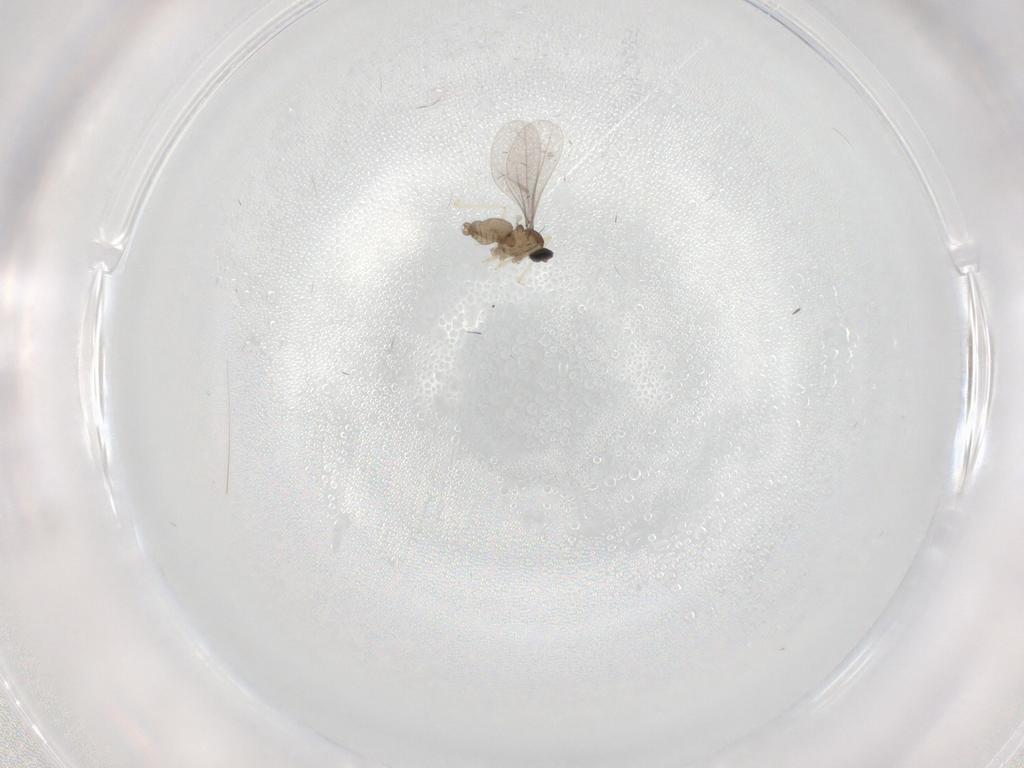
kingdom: Animalia
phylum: Arthropoda
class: Insecta
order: Diptera
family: Cecidomyiidae
